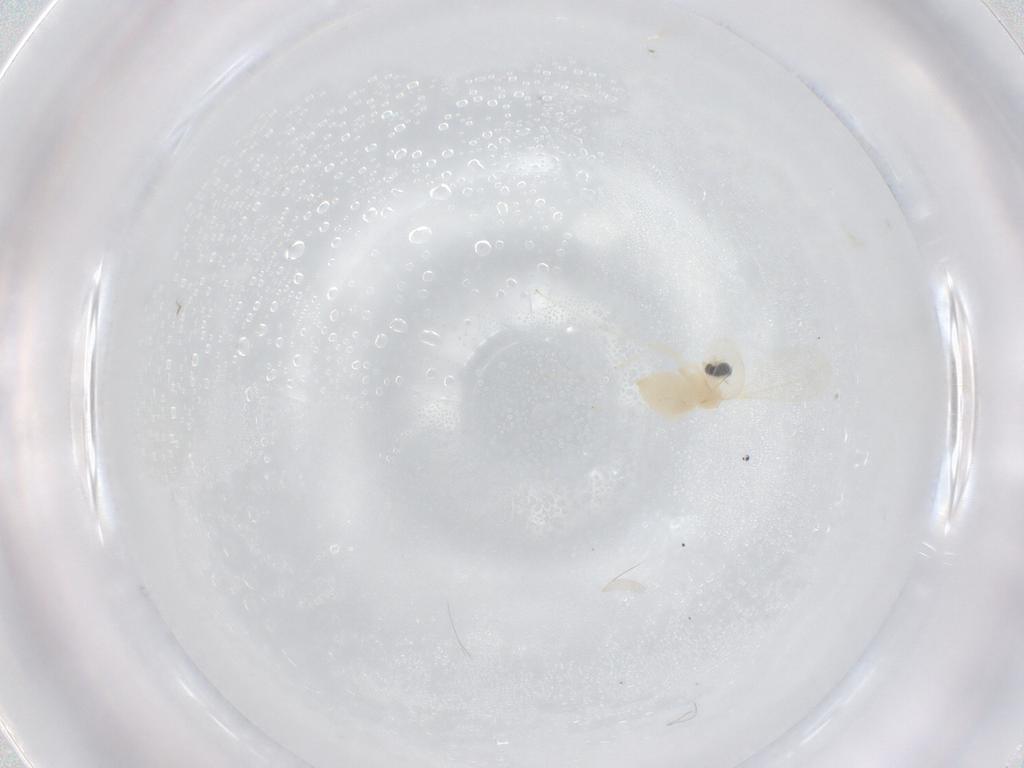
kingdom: Animalia
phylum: Arthropoda
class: Insecta
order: Diptera
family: Cecidomyiidae
